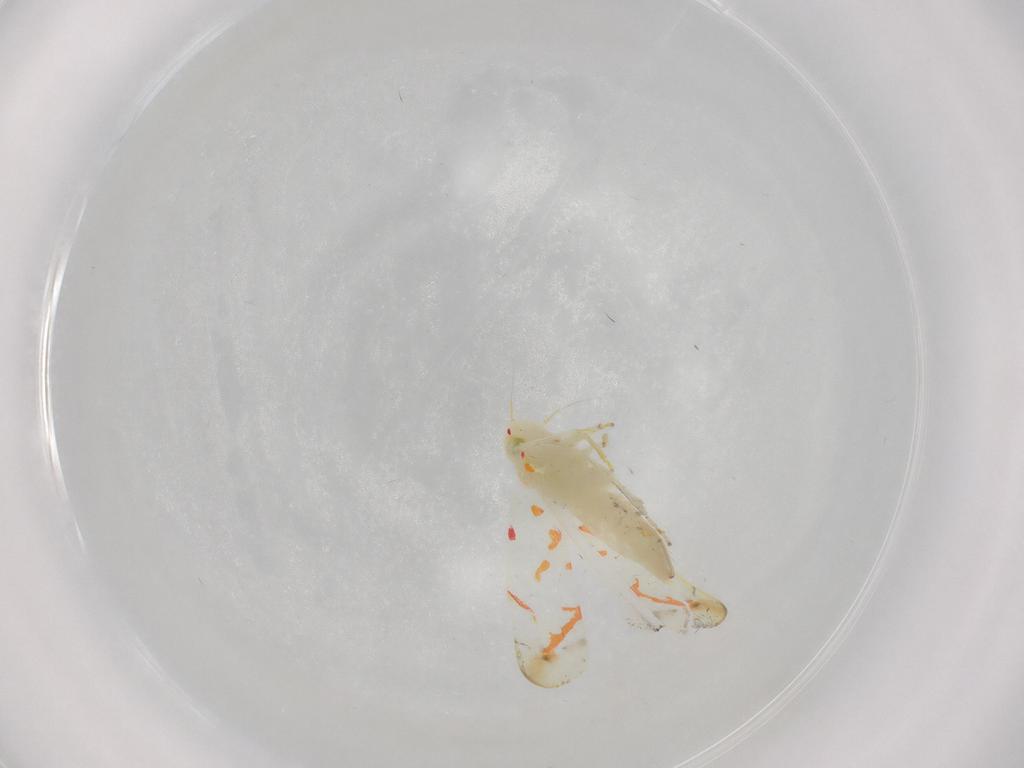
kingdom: Animalia
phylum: Arthropoda
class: Insecta
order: Hemiptera
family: Cicadellidae
